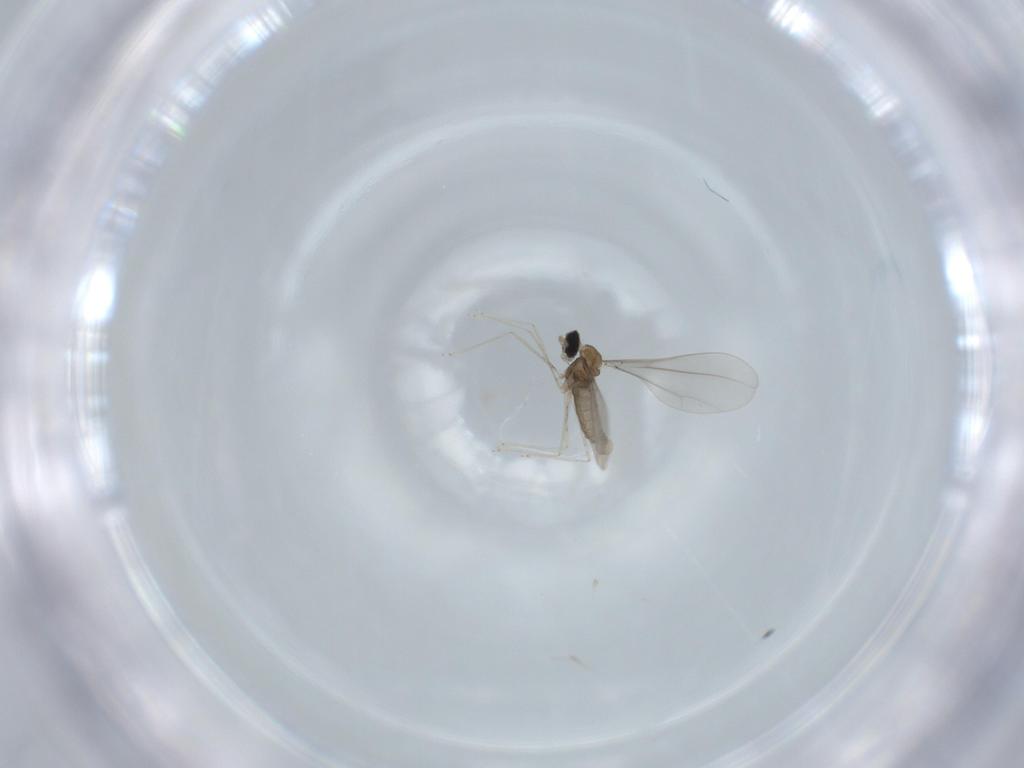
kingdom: Animalia
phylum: Arthropoda
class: Insecta
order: Diptera
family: Cecidomyiidae
